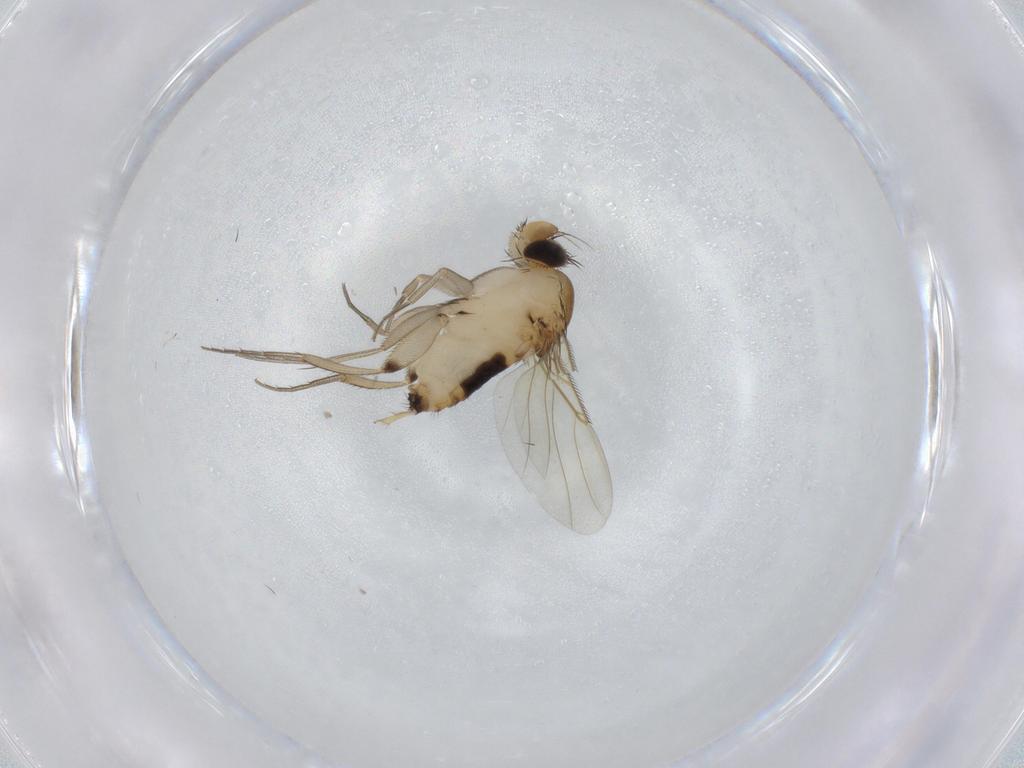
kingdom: Animalia
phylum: Arthropoda
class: Insecta
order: Diptera
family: Phoridae
